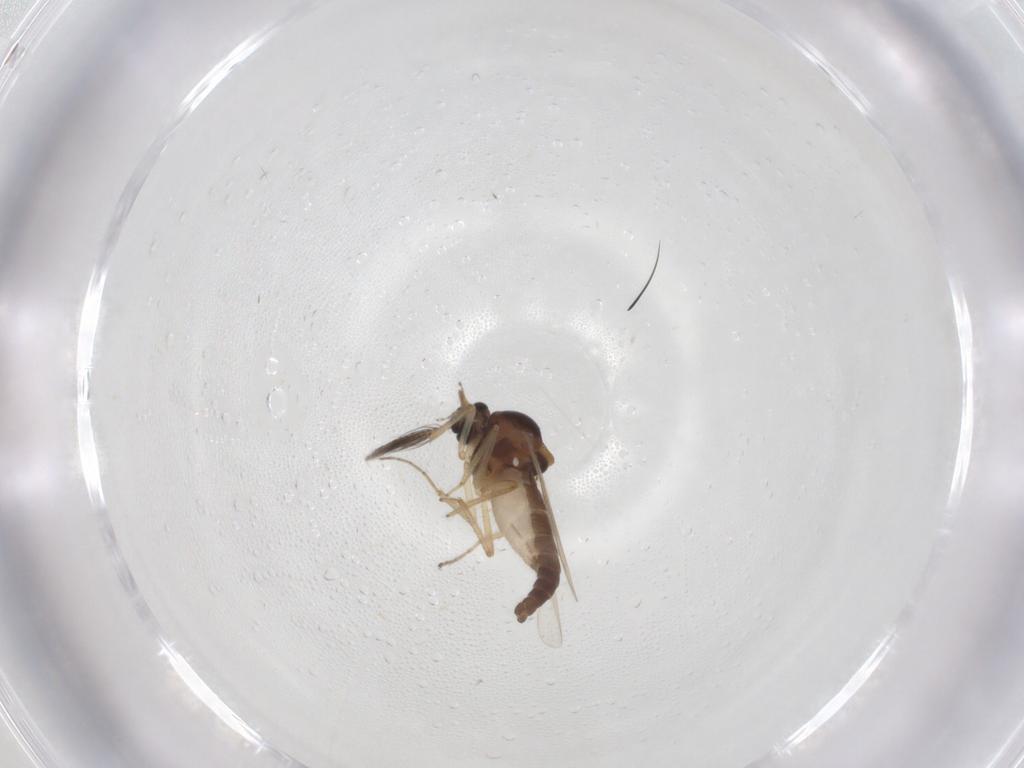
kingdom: Animalia
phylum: Arthropoda
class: Insecta
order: Diptera
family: Ceratopogonidae
